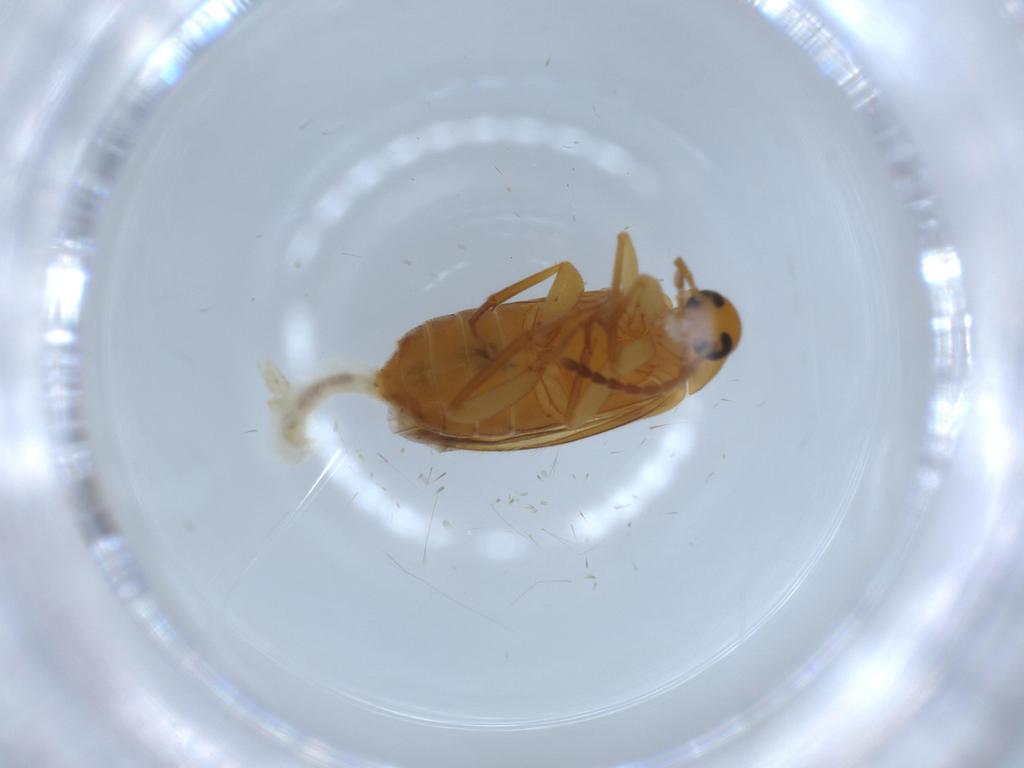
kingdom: Animalia
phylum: Arthropoda
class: Insecta
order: Coleoptera
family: Scraptiidae
